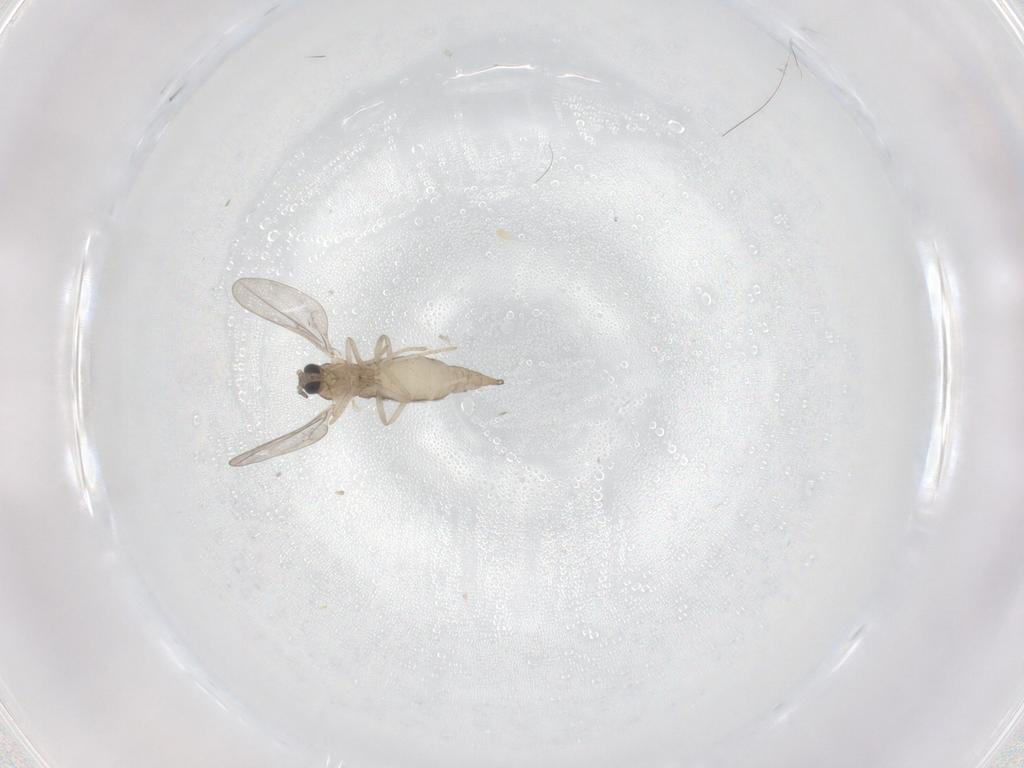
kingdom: Animalia
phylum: Arthropoda
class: Insecta
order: Diptera
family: Cecidomyiidae
